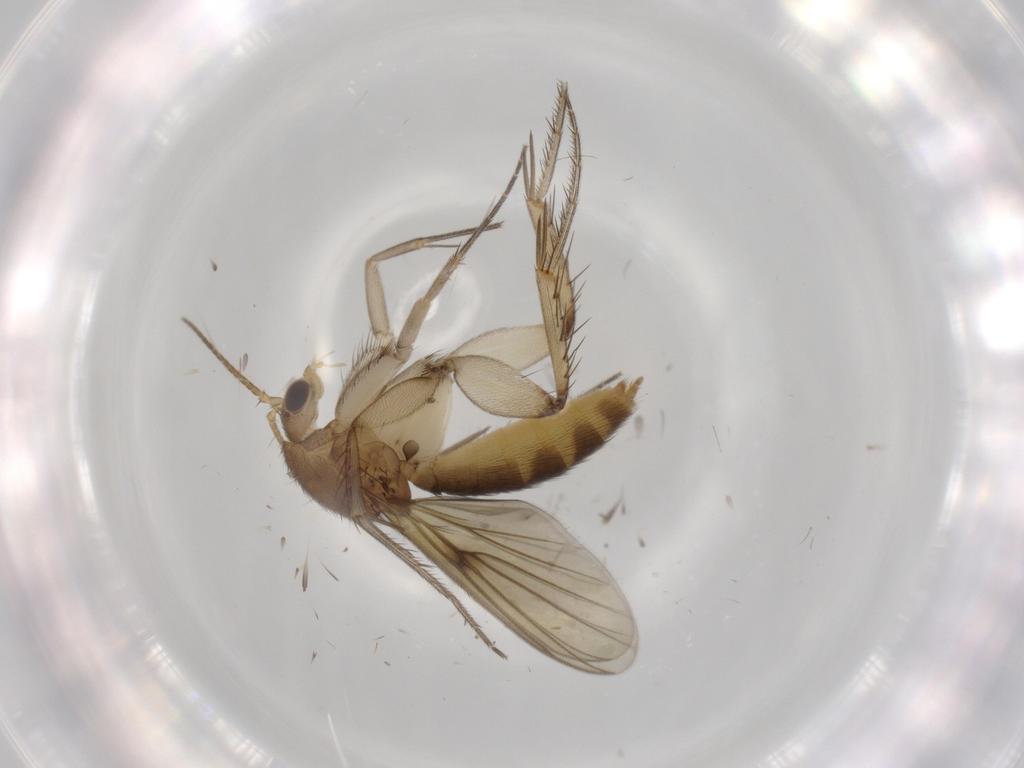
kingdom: Animalia
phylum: Arthropoda
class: Insecta
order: Diptera
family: Mycetophilidae
